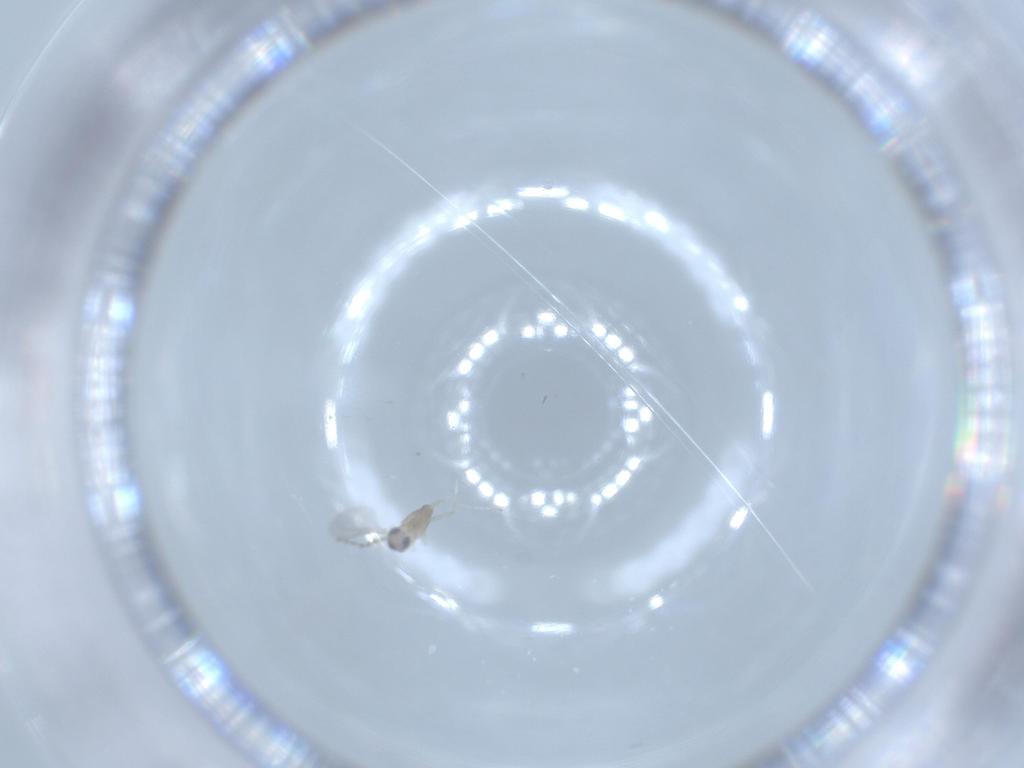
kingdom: Animalia
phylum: Arthropoda
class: Insecta
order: Diptera
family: Cecidomyiidae
